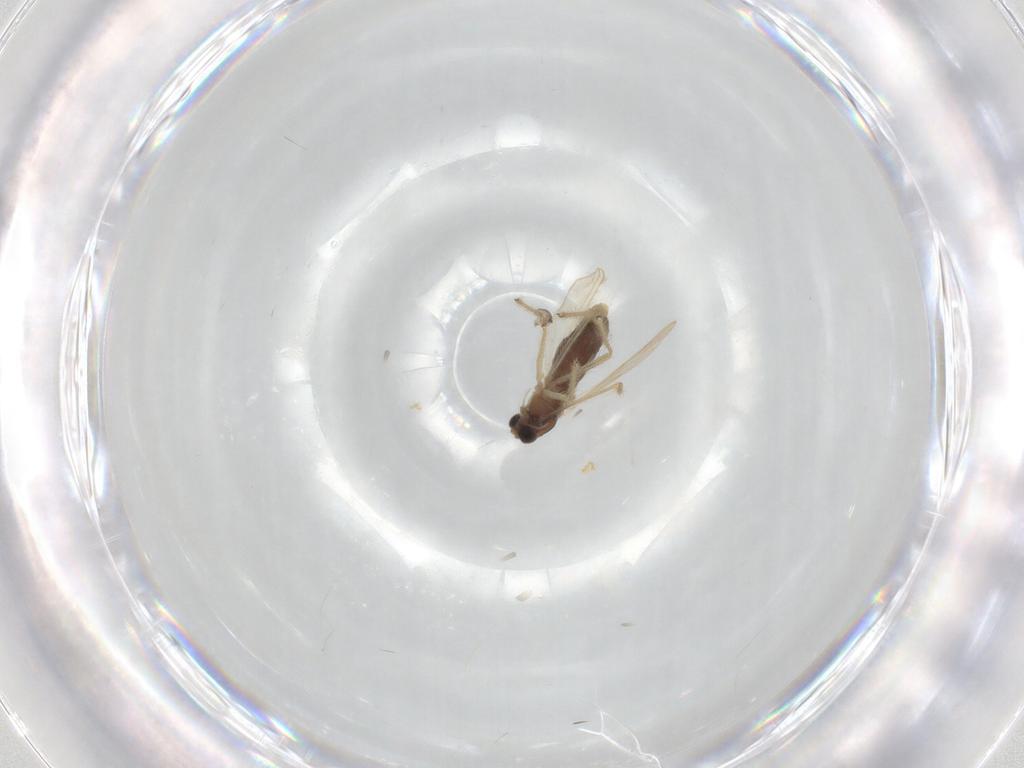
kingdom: Animalia
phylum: Arthropoda
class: Insecta
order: Diptera
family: Chironomidae
